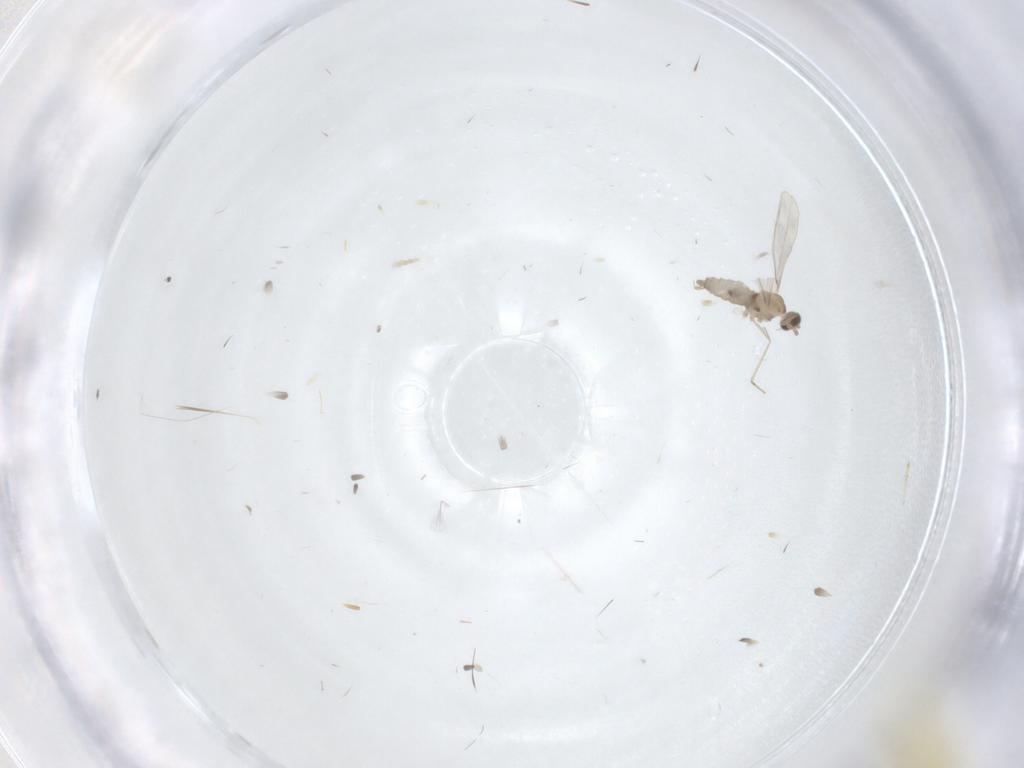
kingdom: Animalia
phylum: Arthropoda
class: Insecta
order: Diptera
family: Cecidomyiidae
